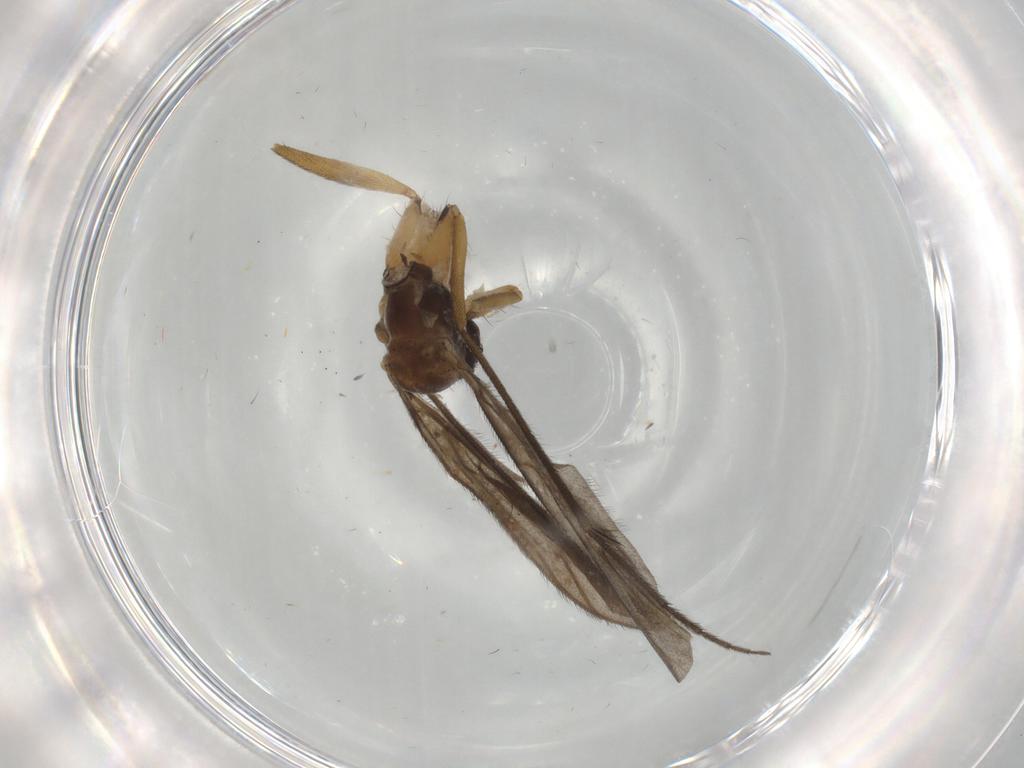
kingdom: Animalia
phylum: Arthropoda
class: Insecta
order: Diptera
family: Ditomyiidae
